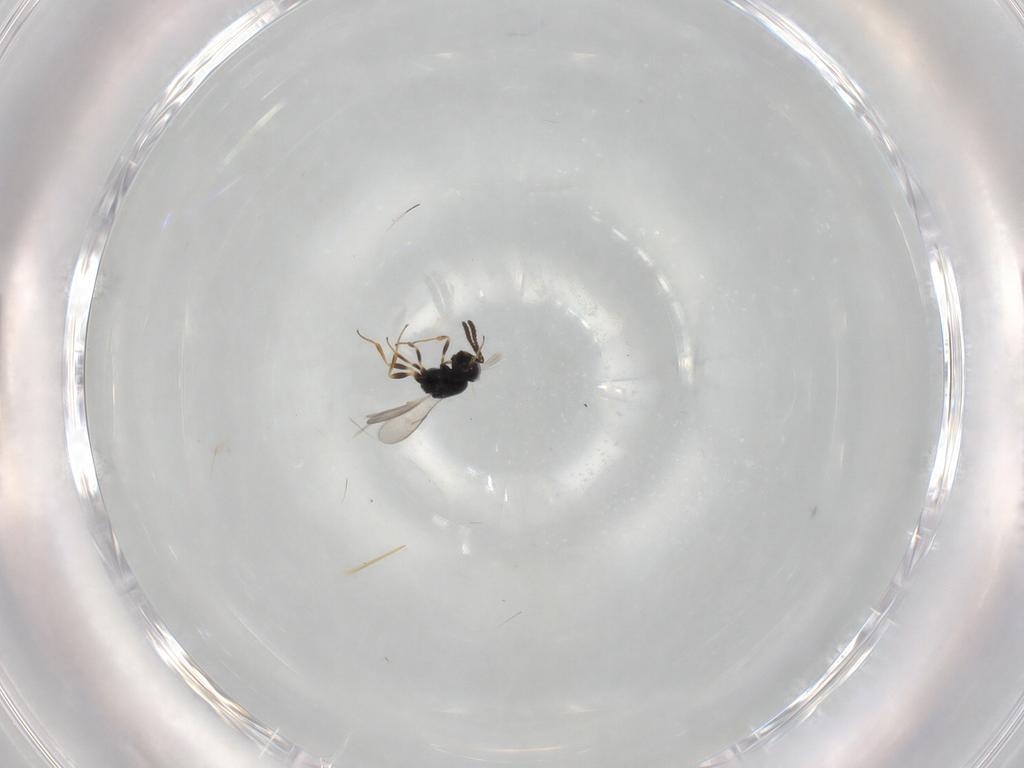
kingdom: Animalia
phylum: Arthropoda
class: Insecta
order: Coleoptera
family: Curculionidae
